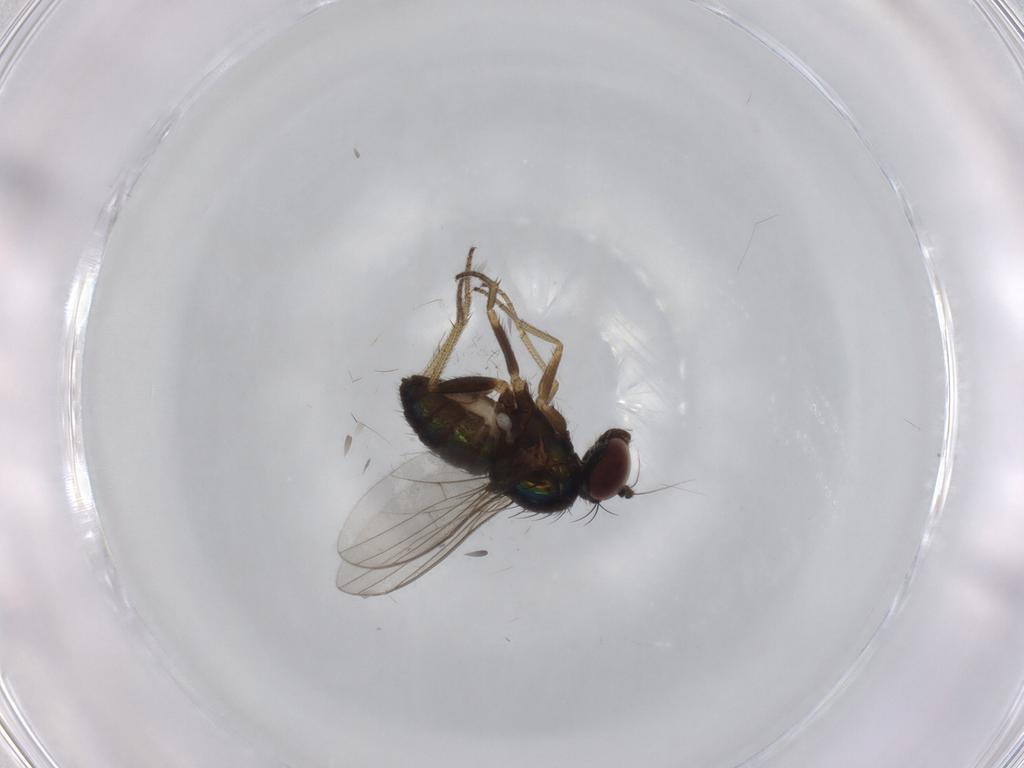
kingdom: Animalia
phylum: Arthropoda
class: Insecta
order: Diptera
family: Dolichopodidae
